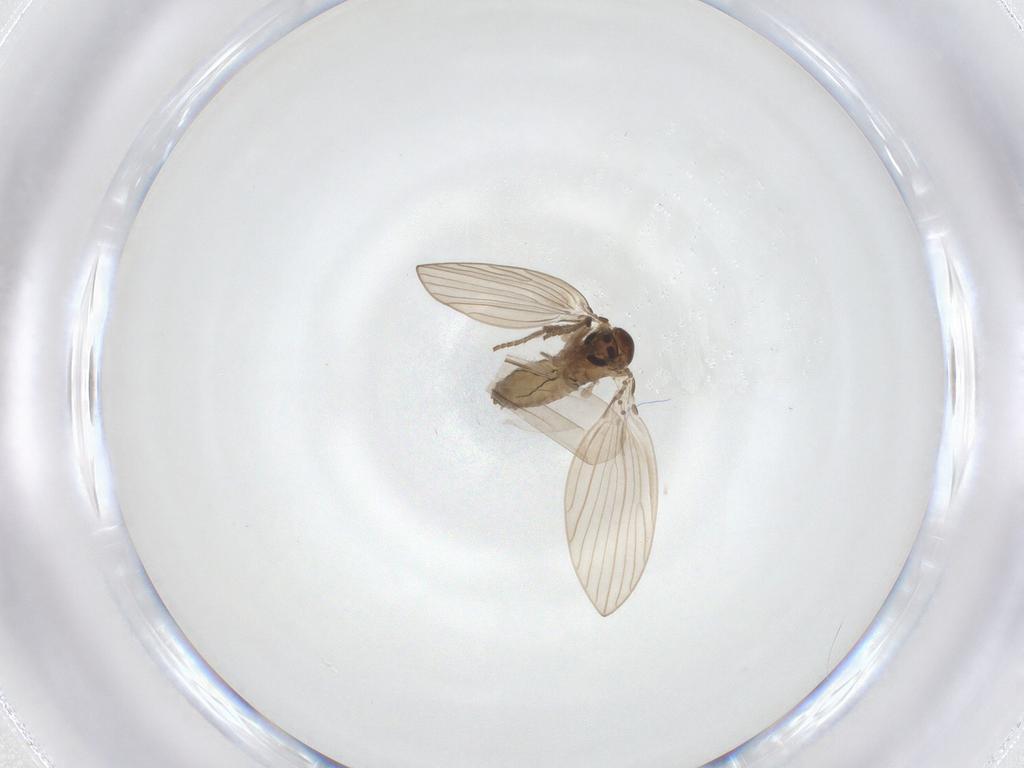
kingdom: Animalia
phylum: Arthropoda
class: Insecta
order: Diptera
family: Psychodidae
